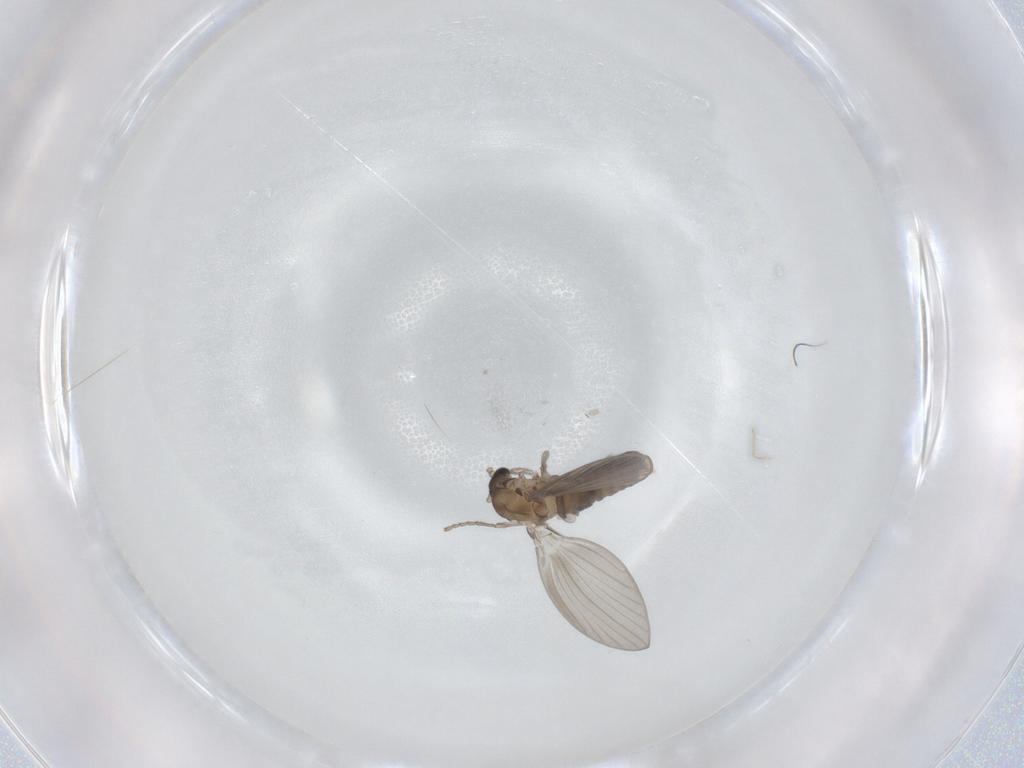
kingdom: Animalia
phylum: Arthropoda
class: Insecta
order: Diptera
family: Psychodidae
